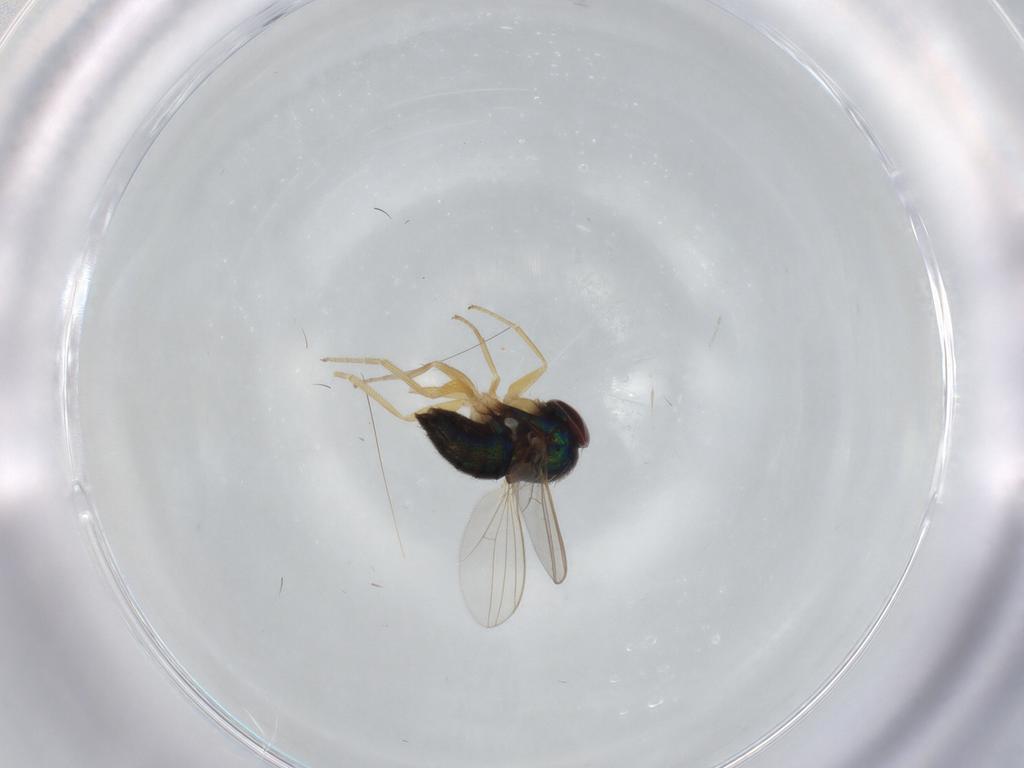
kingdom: Animalia
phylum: Arthropoda
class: Insecta
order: Diptera
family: Dolichopodidae
